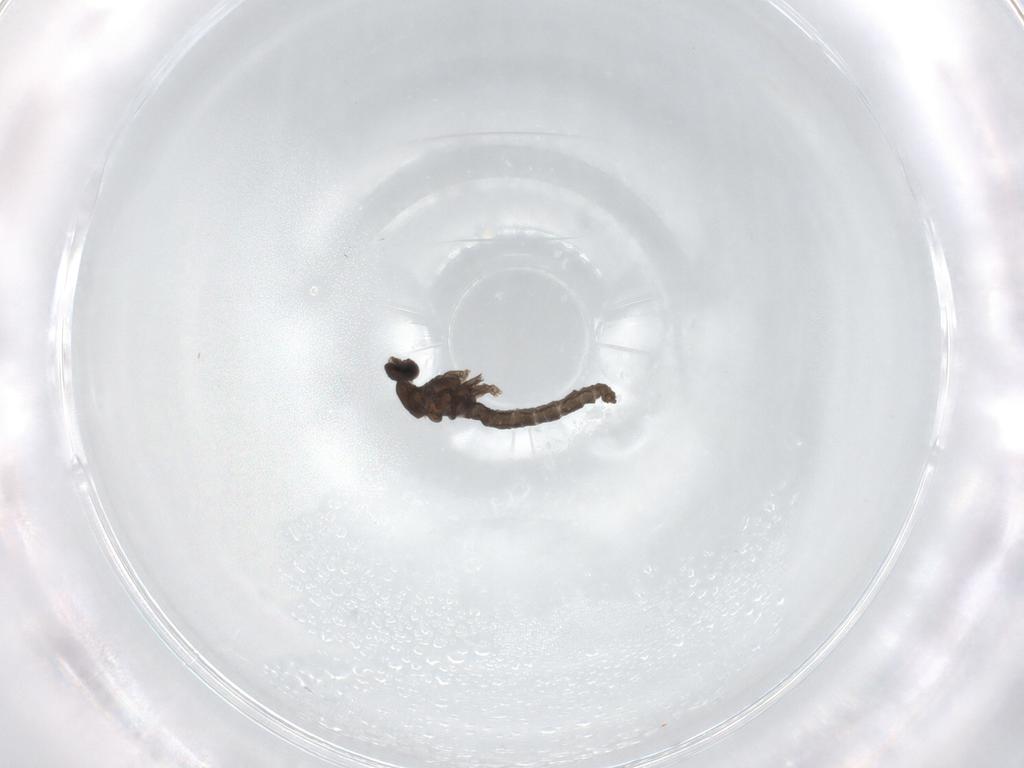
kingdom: Animalia
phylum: Arthropoda
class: Insecta
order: Diptera
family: Cecidomyiidae
